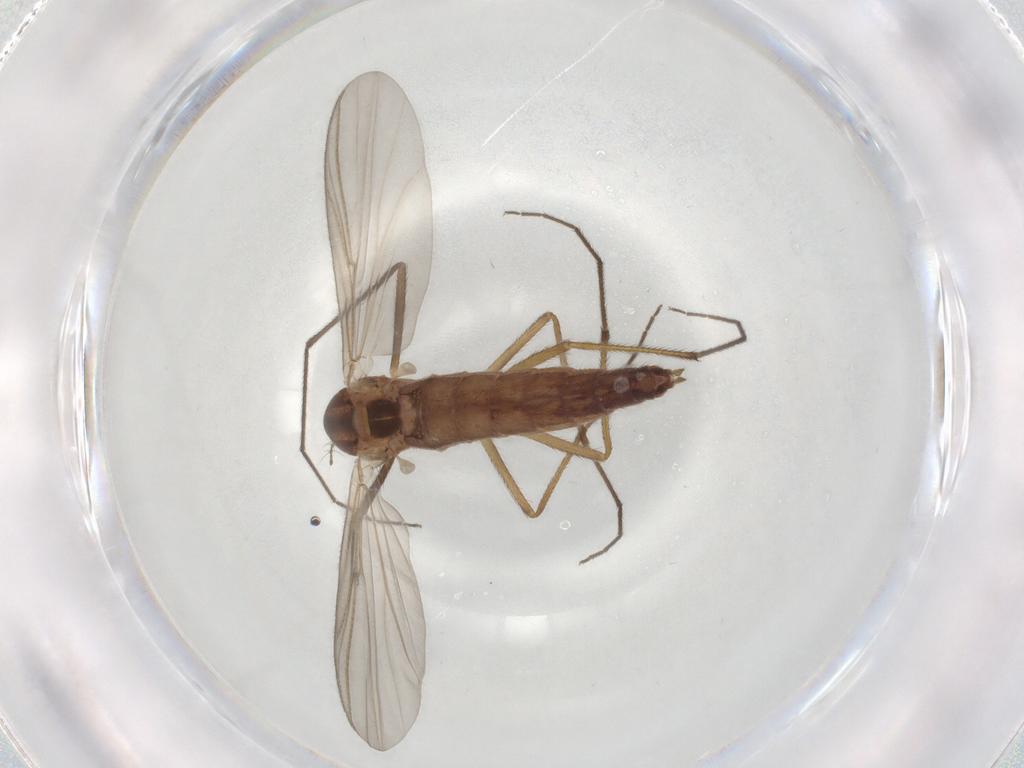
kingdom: Animalia
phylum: Arthropoda
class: Insecta
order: Diptera
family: Chironomidae
